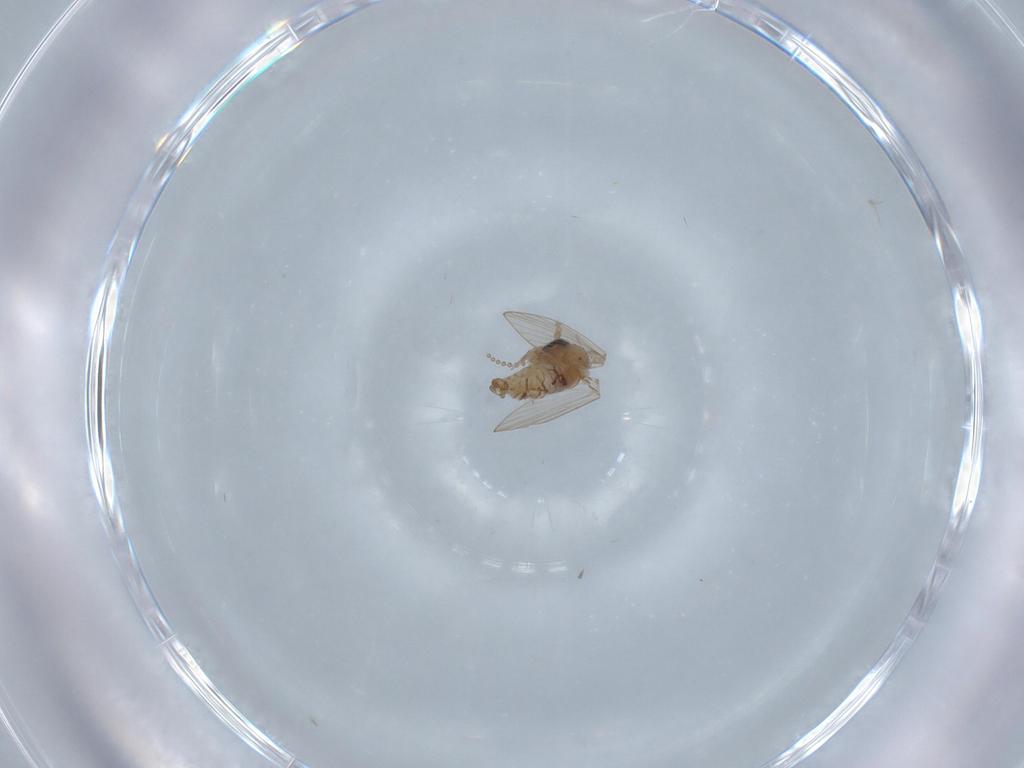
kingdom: Animalia
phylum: Arthropoda
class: Insecta
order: Diptera
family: Psychodidae
